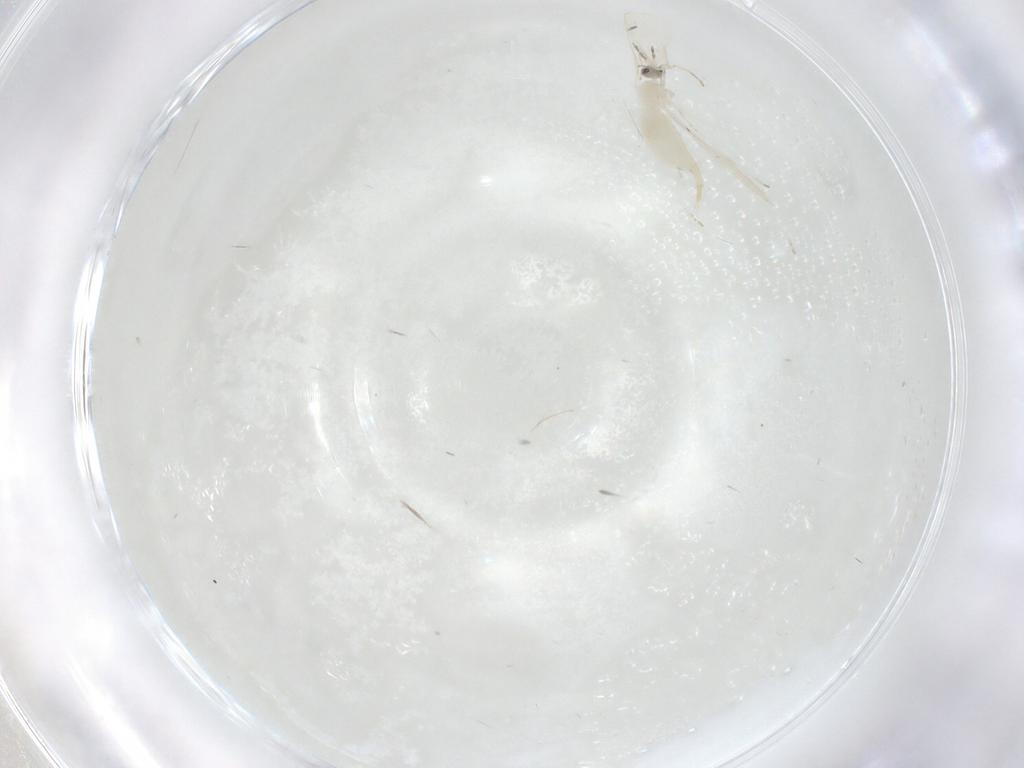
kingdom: Animalia
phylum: Arthropoda
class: Insecta
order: Diptera
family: Cecidomyiidae
